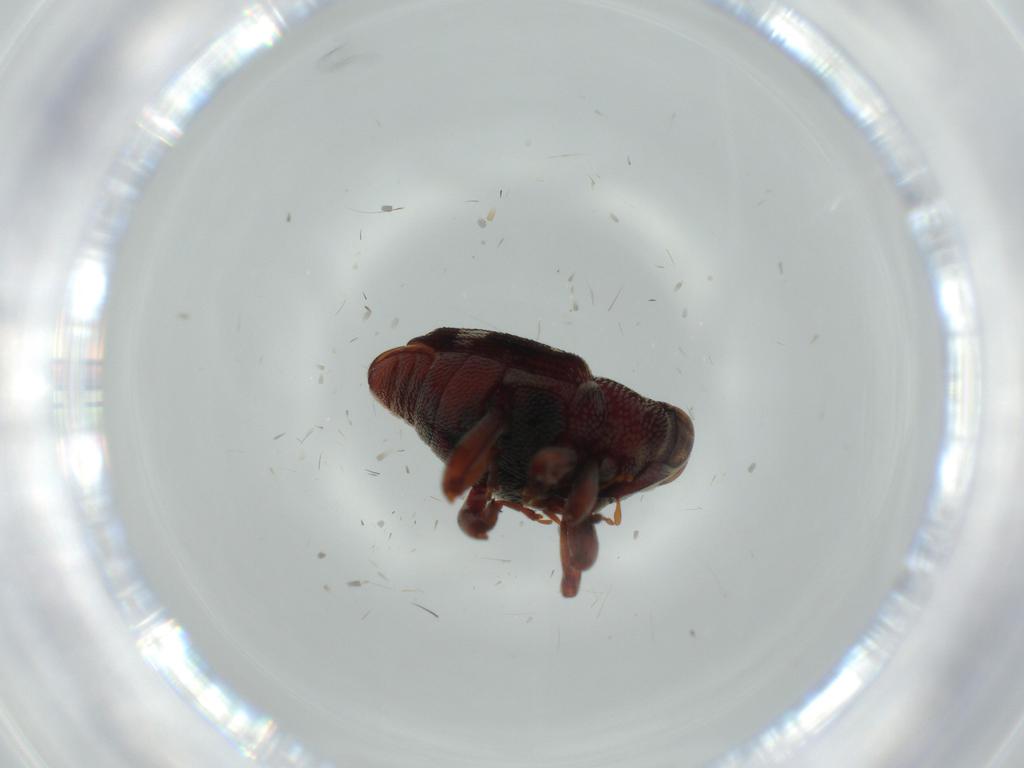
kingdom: Animalia
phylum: Arthropoda
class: Insecta
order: Coleoptera
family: Curculionidae
